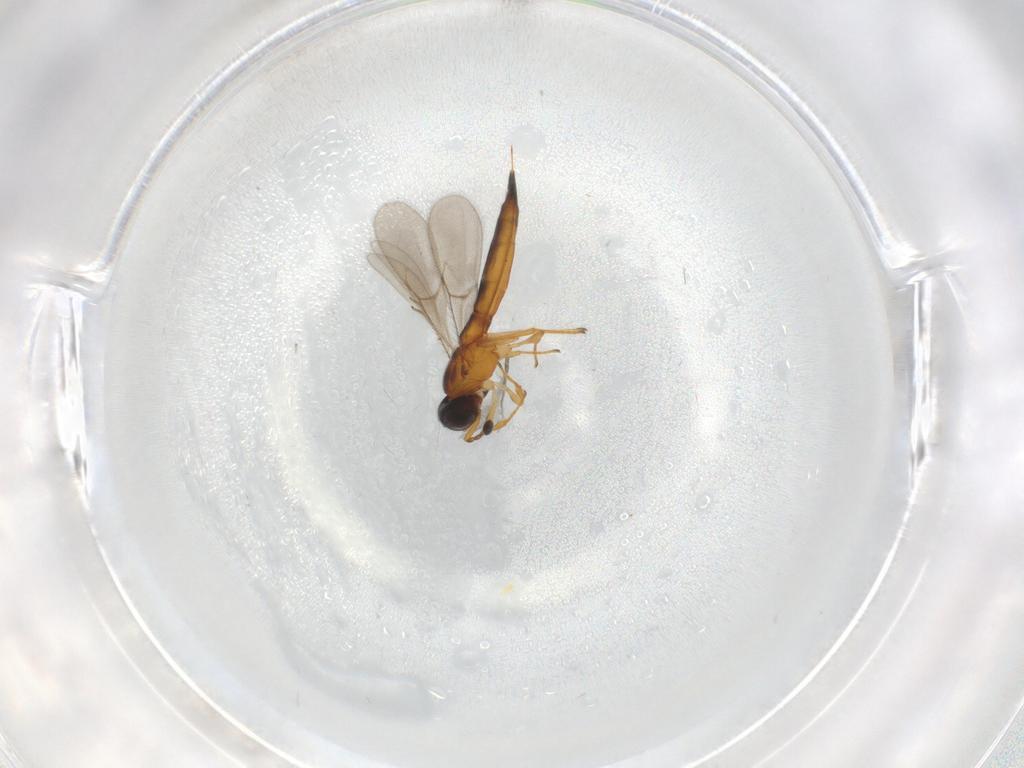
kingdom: Animalia
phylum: Arthropoda
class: Insecta
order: Hymenoptera
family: Scelionidae
